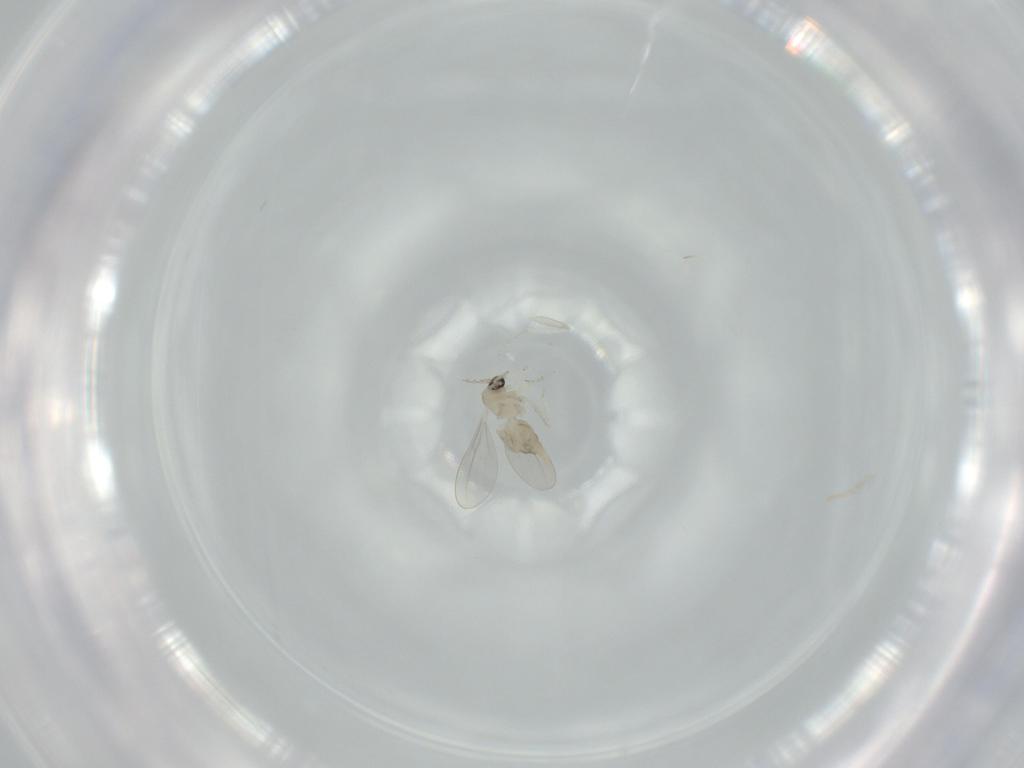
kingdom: Animalia
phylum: Arthropoda
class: Insecta
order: Diptera
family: Cecidomyiidae
